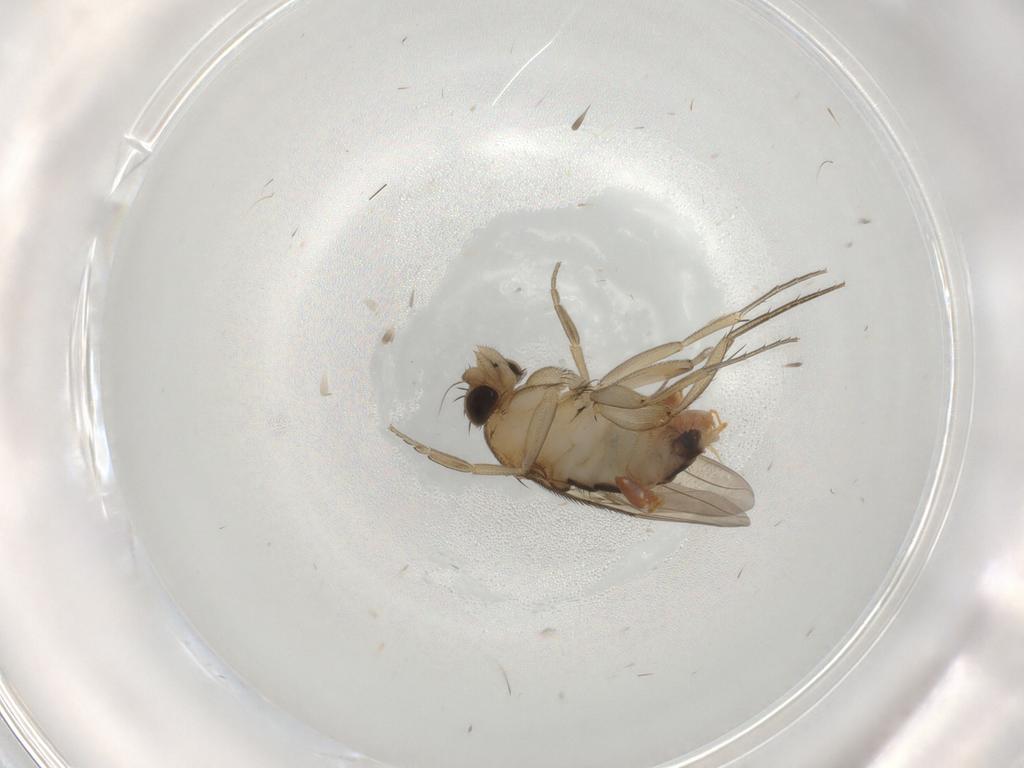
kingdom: Animalia
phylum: Arthropoda
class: Insecta
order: Diptera
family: Phoridae
